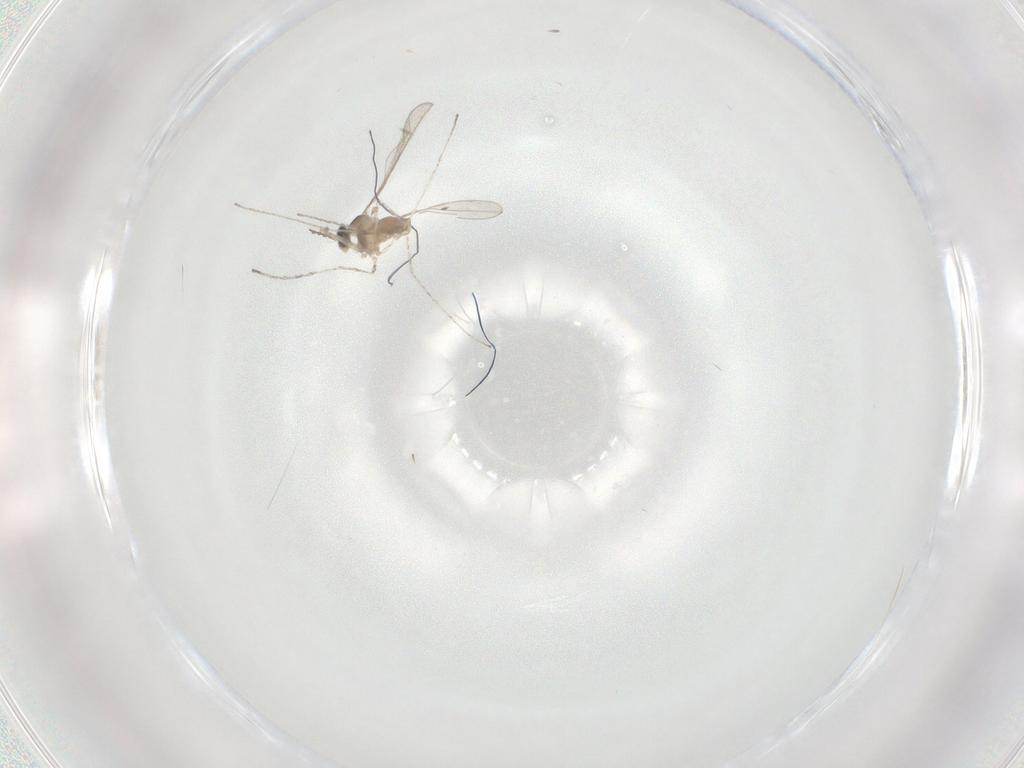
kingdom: Animalia
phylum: Arthropoda
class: Insecta
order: Diptera
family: Cecidomyiidae
